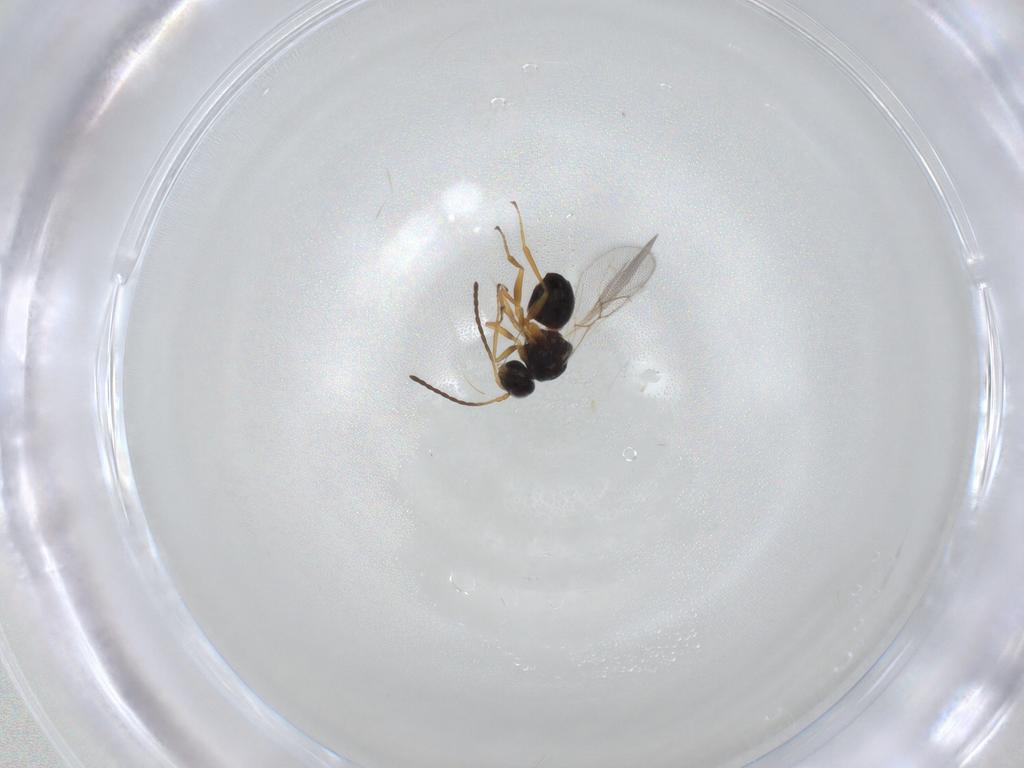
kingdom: Animalia
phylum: Arthropoda
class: Insecta
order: Hymenoptera
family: Figitidae
